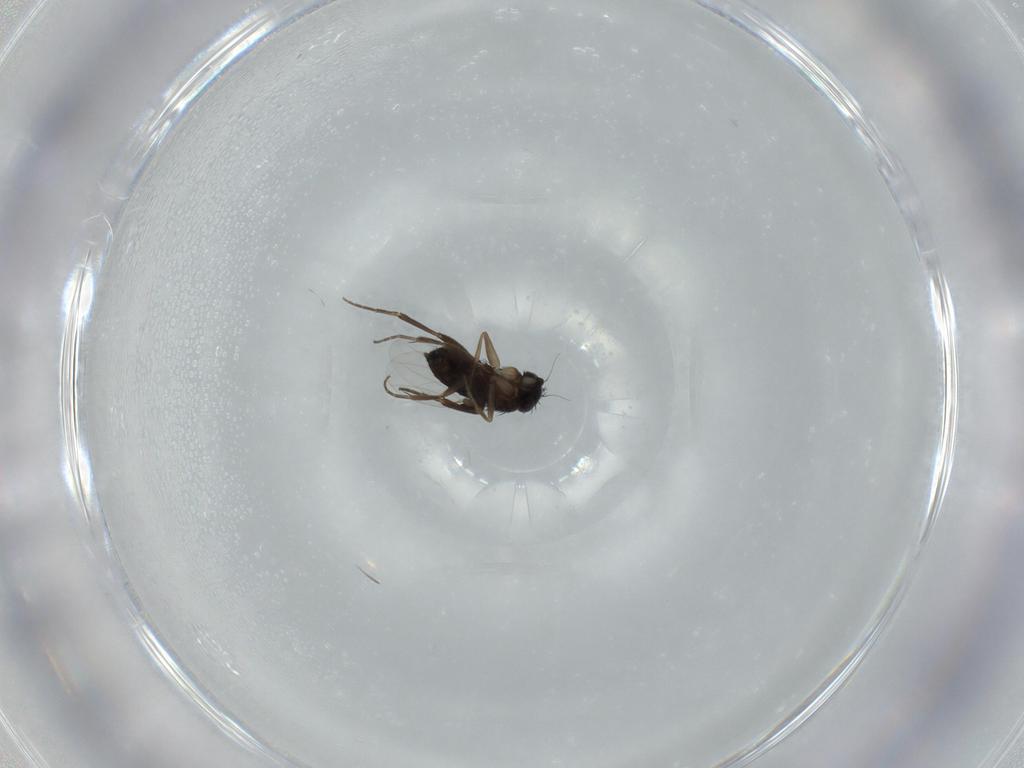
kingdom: Animalia
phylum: Arthropoda
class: Insecta
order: Diptera
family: Phoridae
